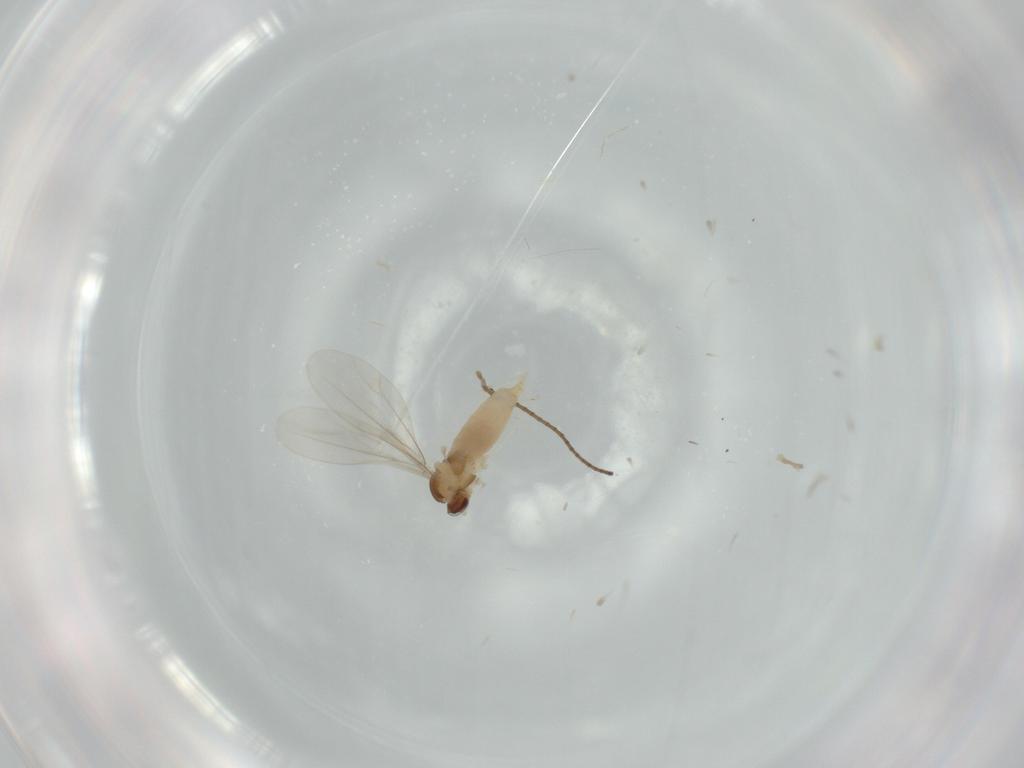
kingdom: Animalia
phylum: Arthropoda
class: Insecta
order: Diptera
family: Cecidomyiidae
